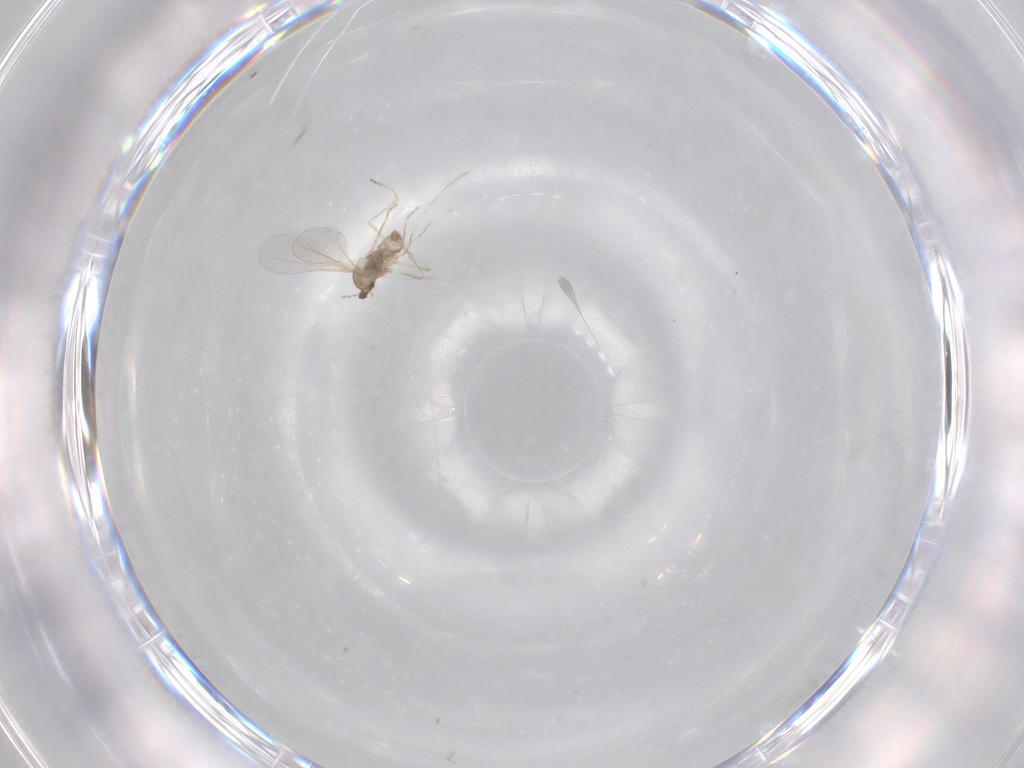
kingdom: Animalia
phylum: Arthropoda
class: Insecta
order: Diptera
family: Cecidomyiidae
